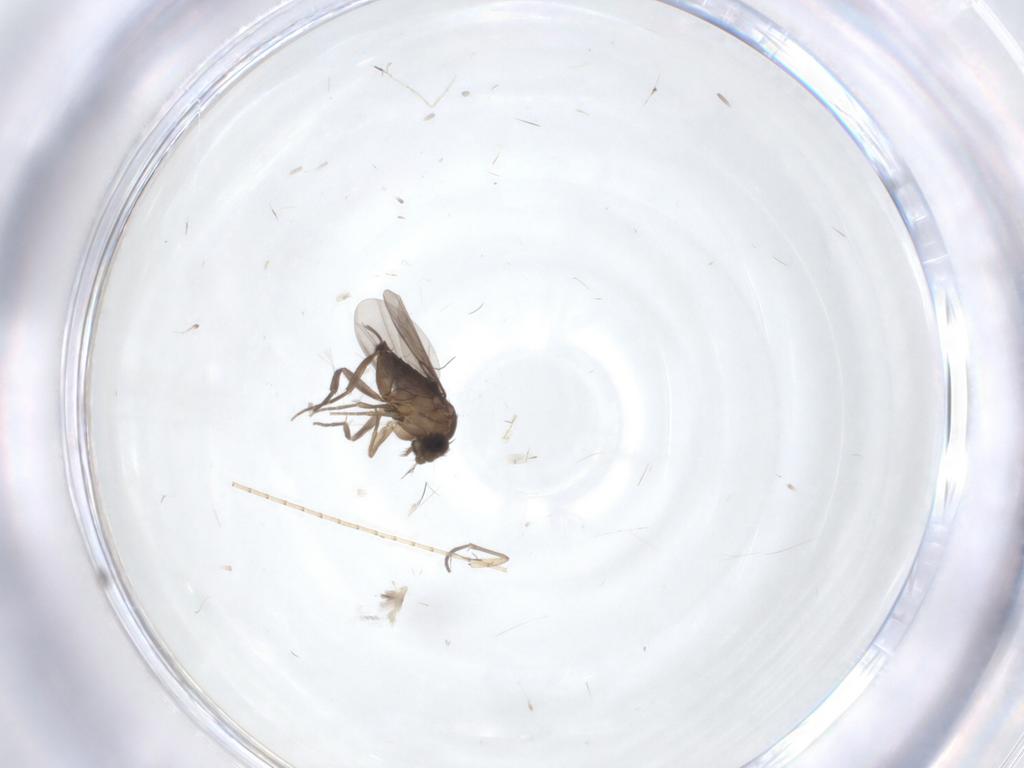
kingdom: Animalia
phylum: Arthropoda
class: Insecta
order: Diptera
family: Phoridae
